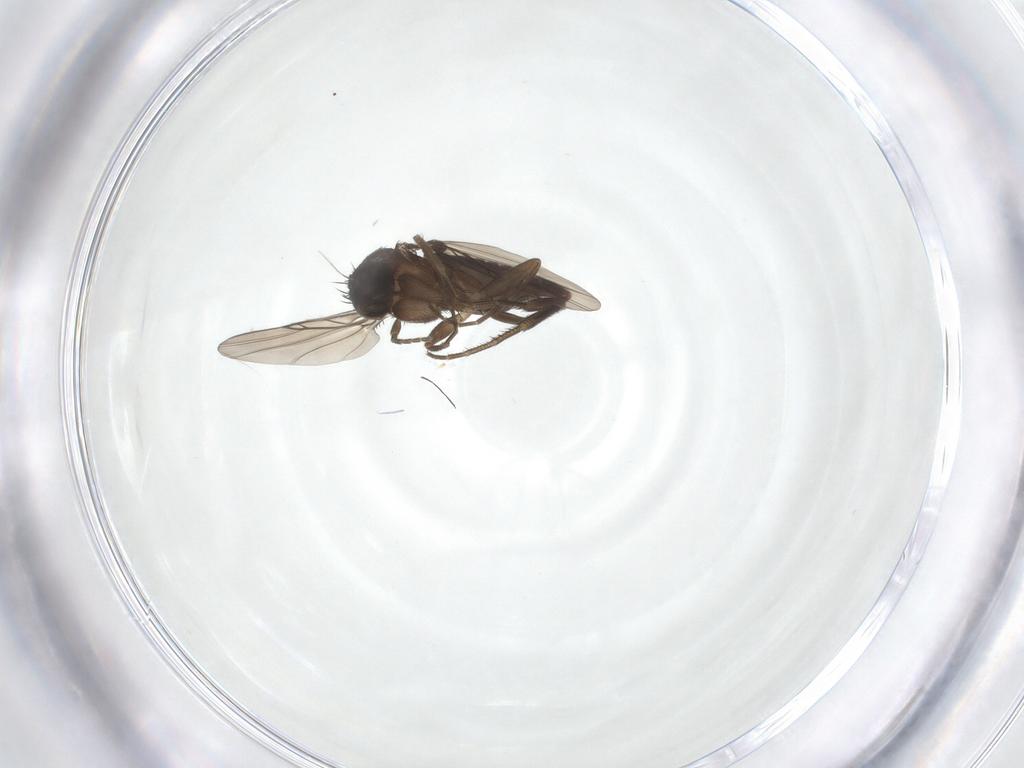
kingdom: Animalia
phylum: Arthropoda
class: Insecta
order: Diptera
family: Phoridae
